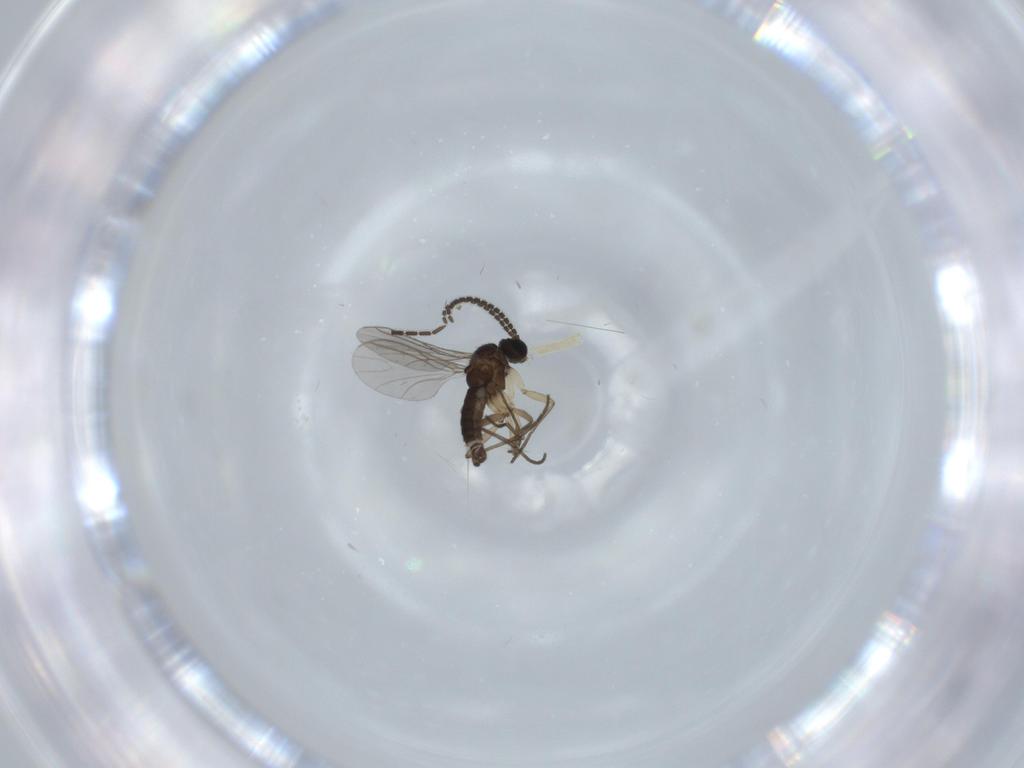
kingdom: Animalia
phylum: Arthropoda
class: Insecta
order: Diptera
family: Sciaridae
